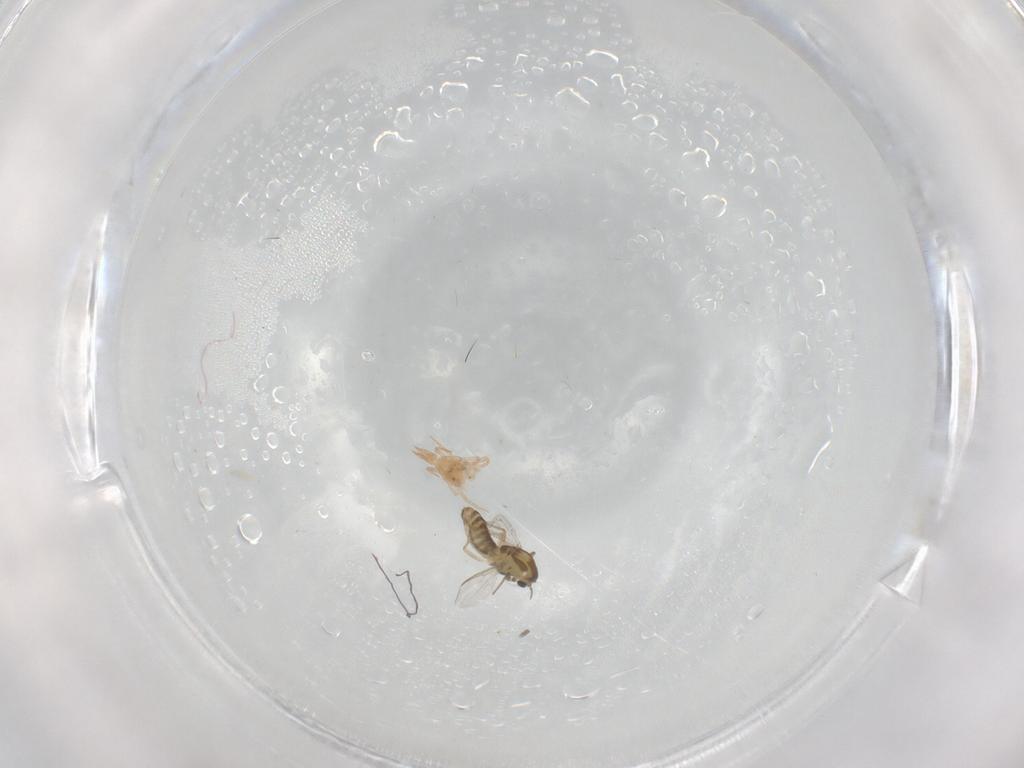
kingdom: Animalia
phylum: Arthropoda
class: Insecta
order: Diptera
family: Chironomidae
